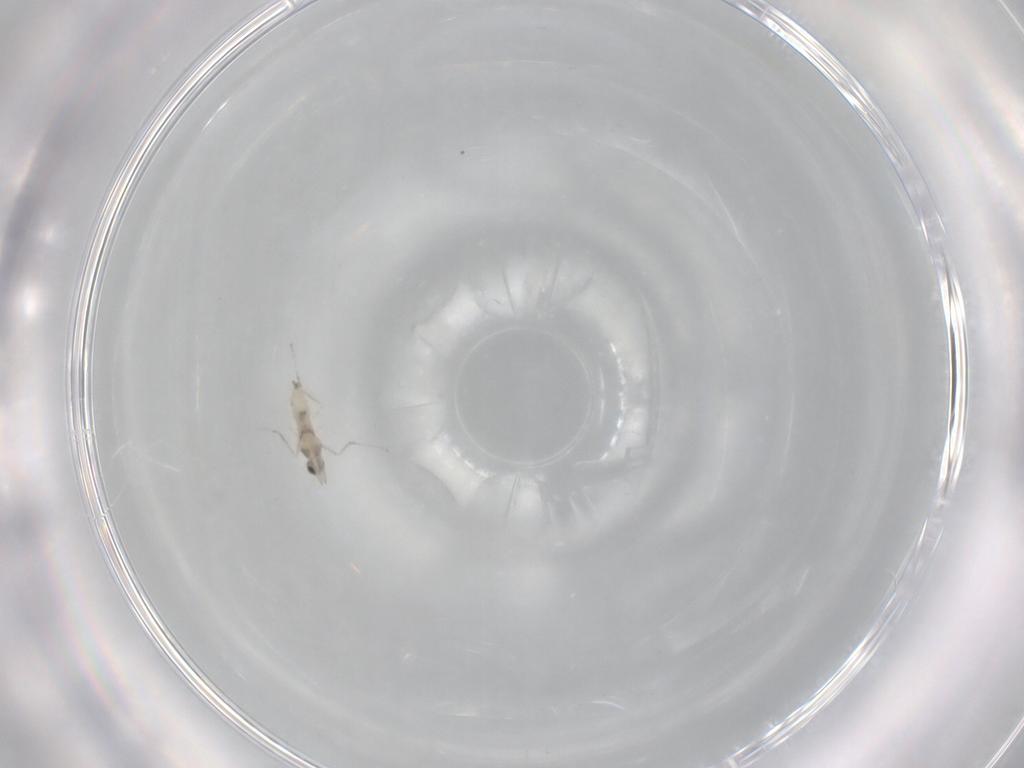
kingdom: Animalia
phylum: Arthropoda
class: Insecta
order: Diptera
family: Cecidomyiidae
